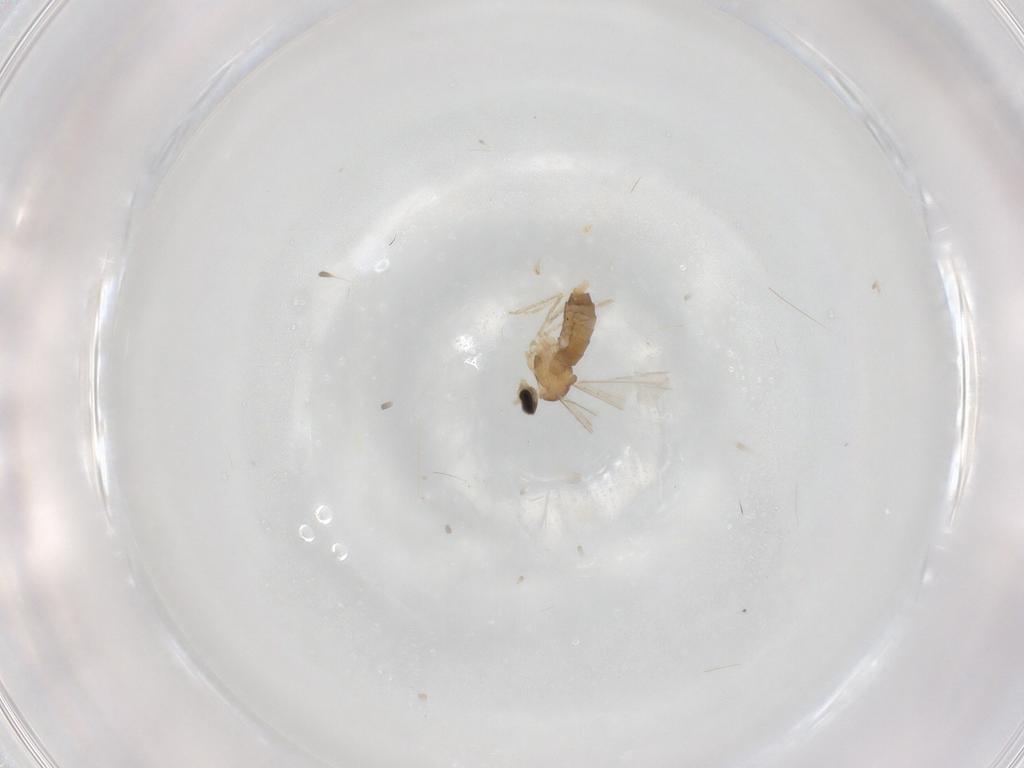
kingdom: Animalia
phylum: Arthropoda
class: Insecta
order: Diptera
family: Cecidomyiidae
